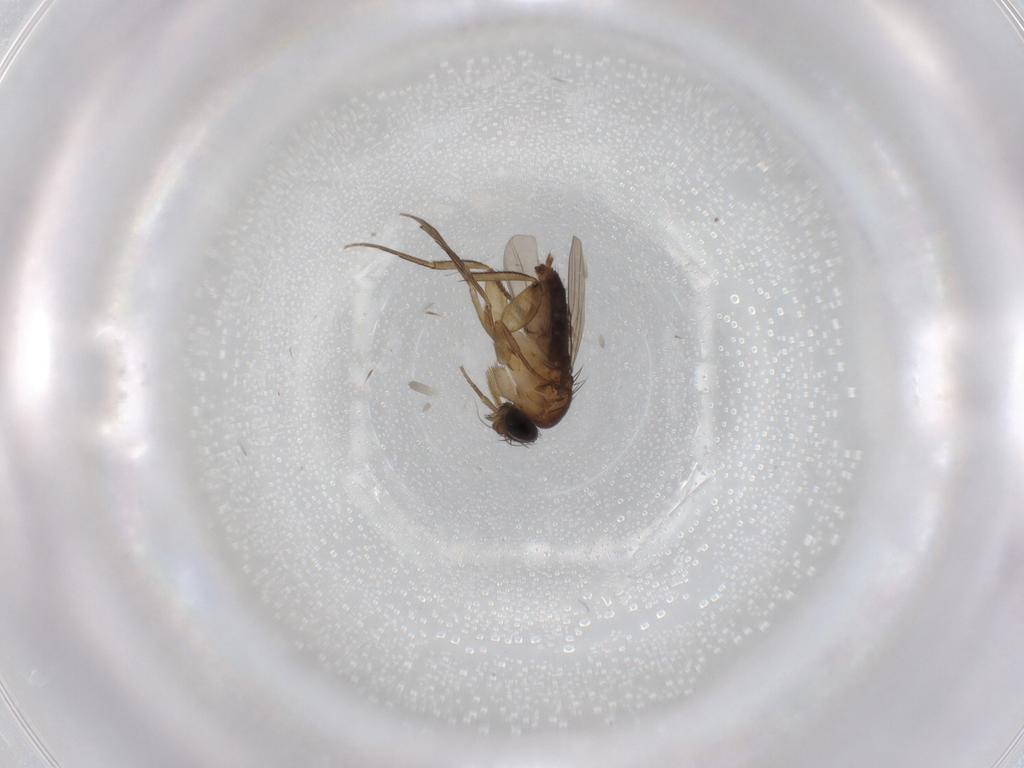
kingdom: Animalia
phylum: Arthropoda
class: Insecta
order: Diptera
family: Phoridae
